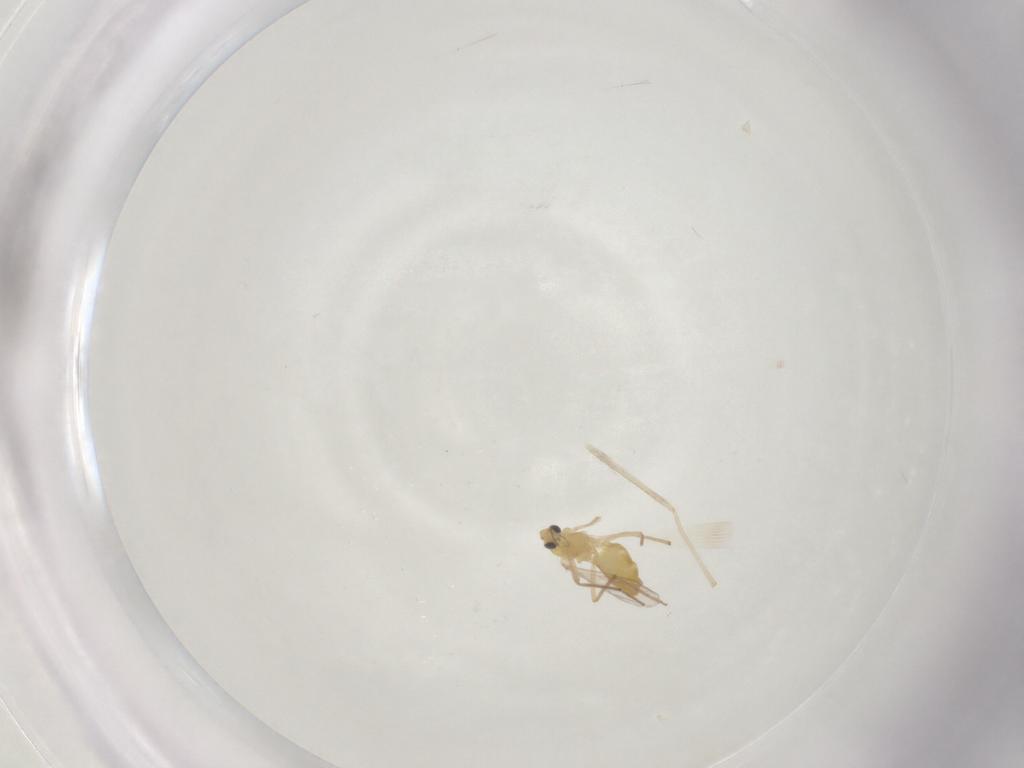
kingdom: Animalia
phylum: Arthropoda
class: Insecta
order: Diptera
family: Chironomidae
